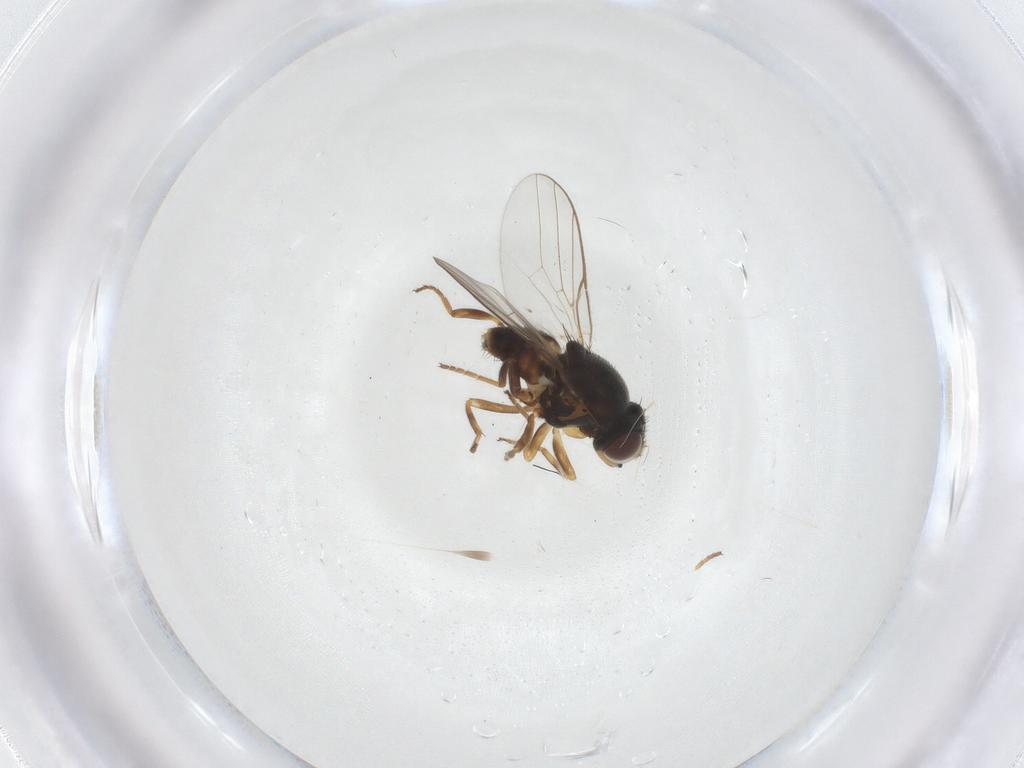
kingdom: Animalia
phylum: Arthropoda
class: Insecta
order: Diptera
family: Chloropidae
